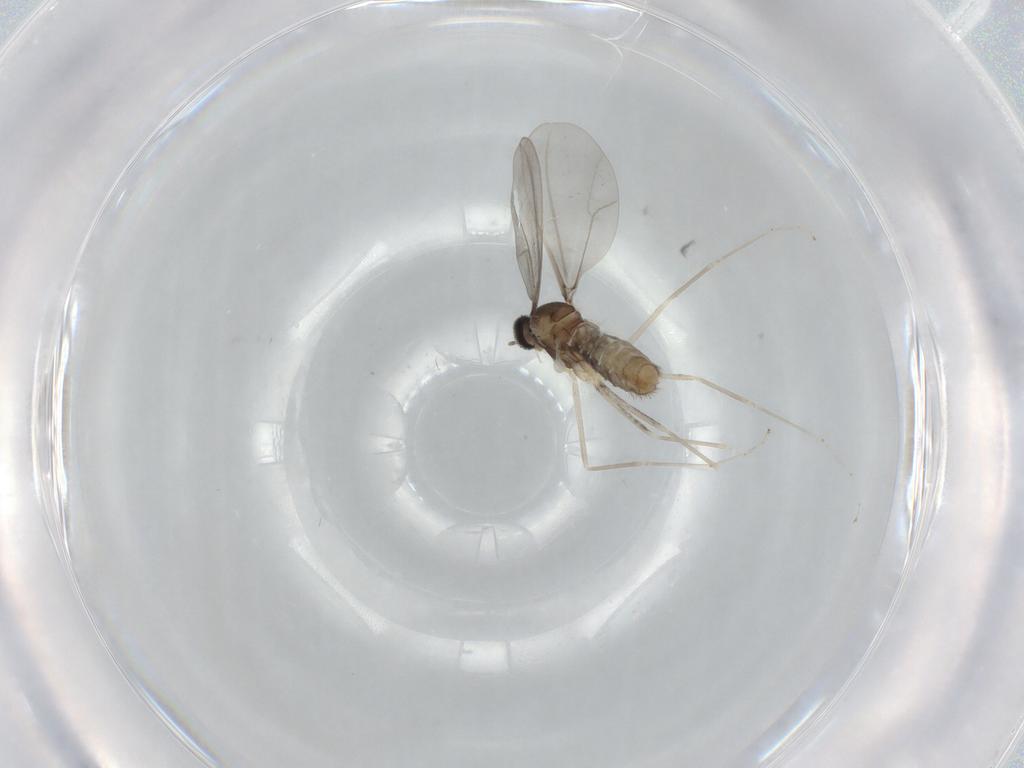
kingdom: Animalia
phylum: Arthropoda
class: Insecta
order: Diptera
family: Cecidomyiidae
